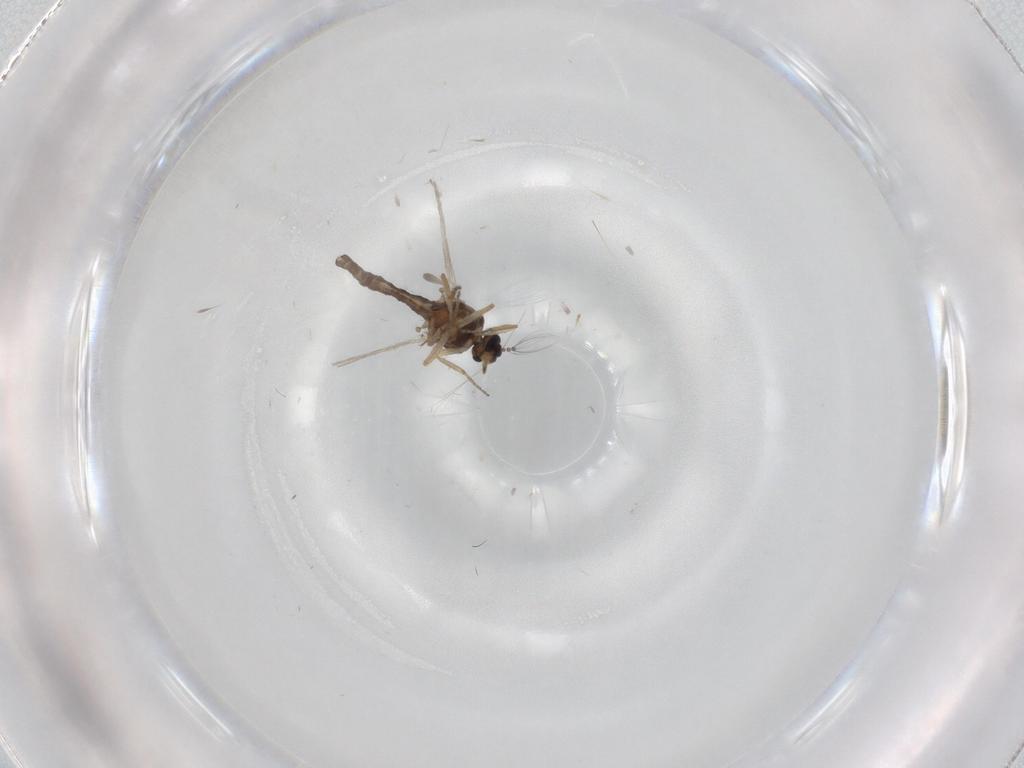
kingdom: Animalia
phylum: Arthropoda
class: Insecta
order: Diptera
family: Ceratopogonidae
